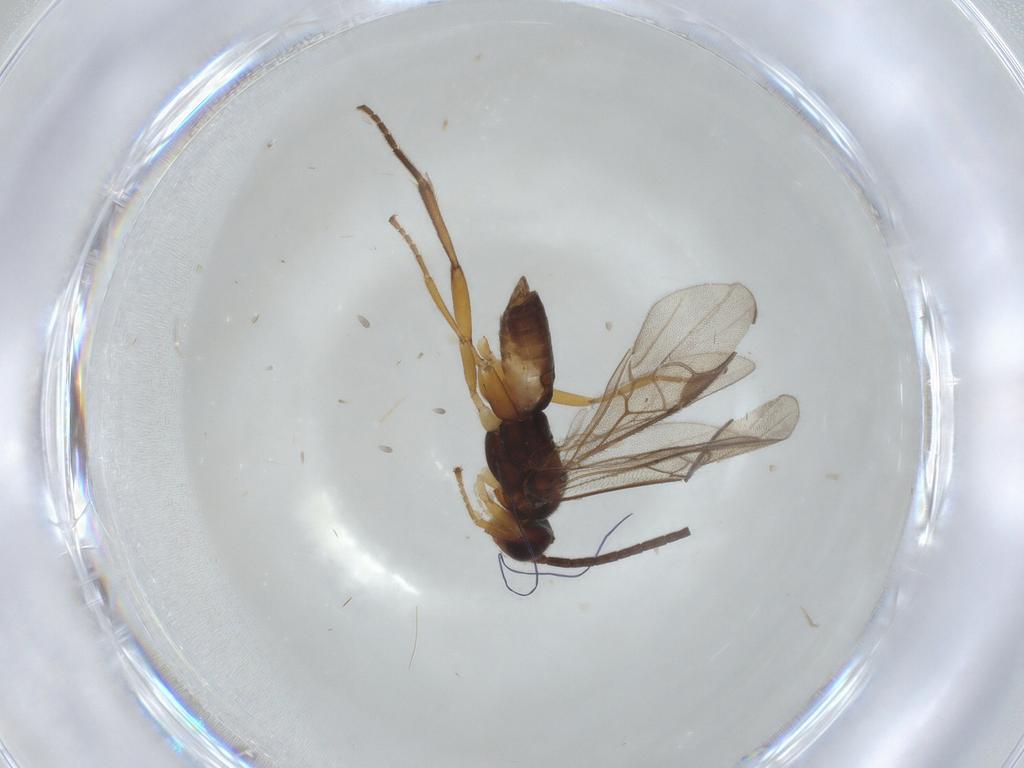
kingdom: Animalia
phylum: Arthropoda
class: Insecta
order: Hymenoptera
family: Braconidae
